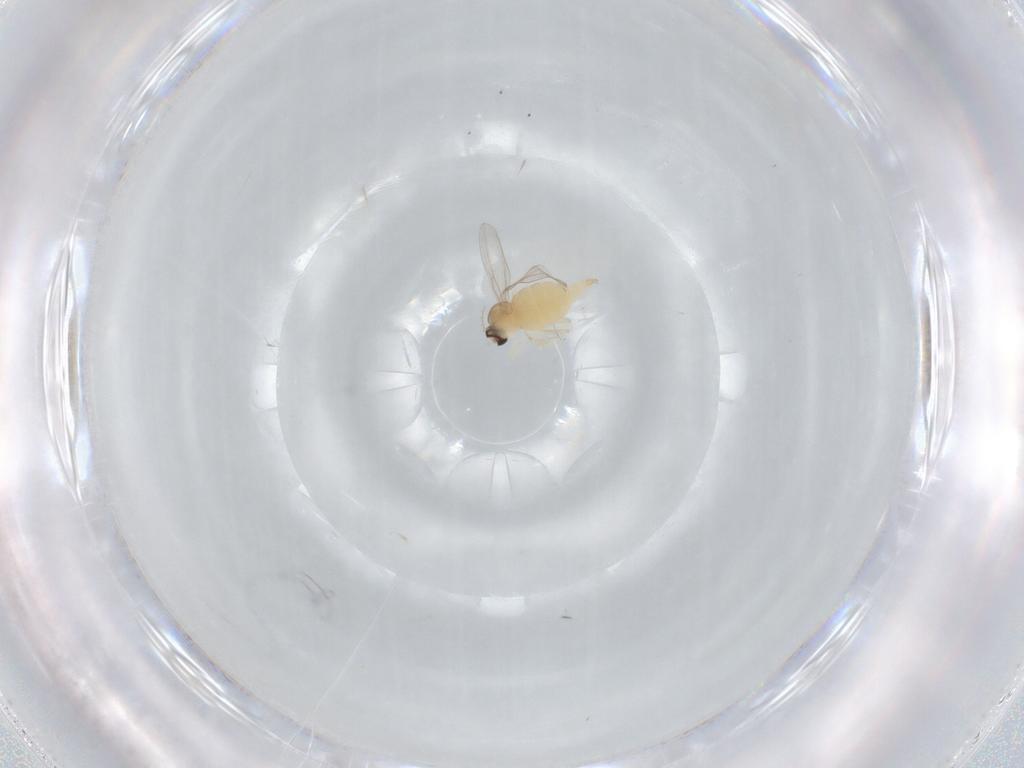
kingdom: Animalia
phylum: Arthropoda
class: Insecta
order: Diptera
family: Cecidomyiidae
